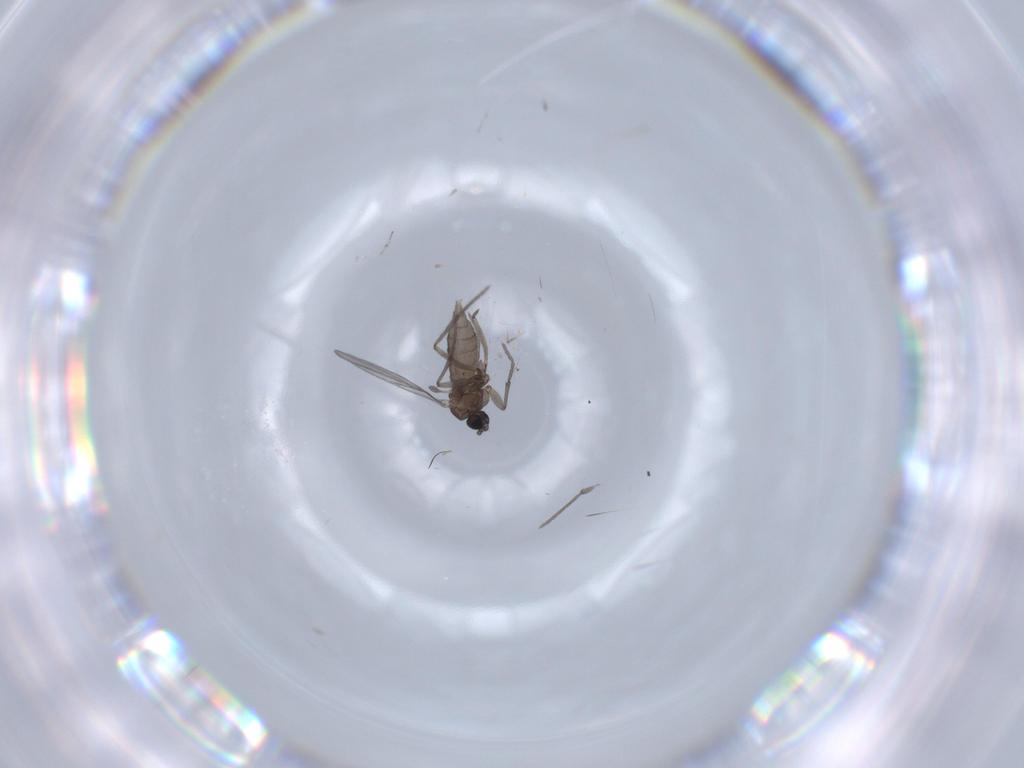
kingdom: Animalia
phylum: Arthropoda
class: Insecta
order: Diptera
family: Sciaridae
